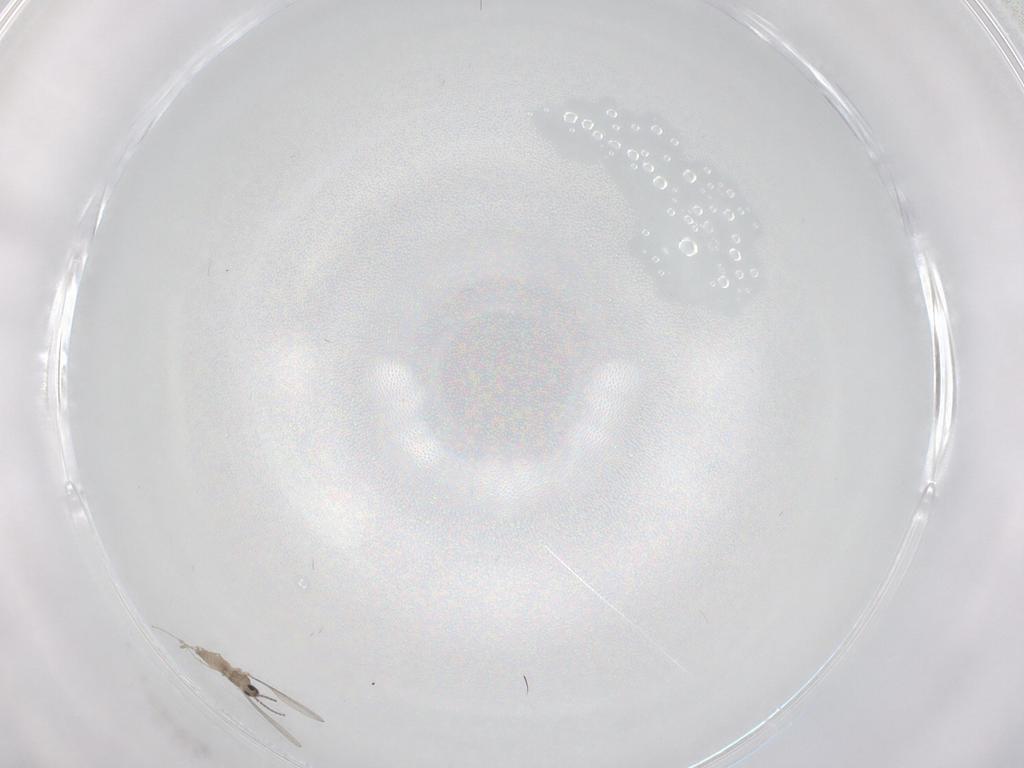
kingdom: Animalia
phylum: Arthropoda
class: Insecta
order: Diptera
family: Cecidomyiidae
